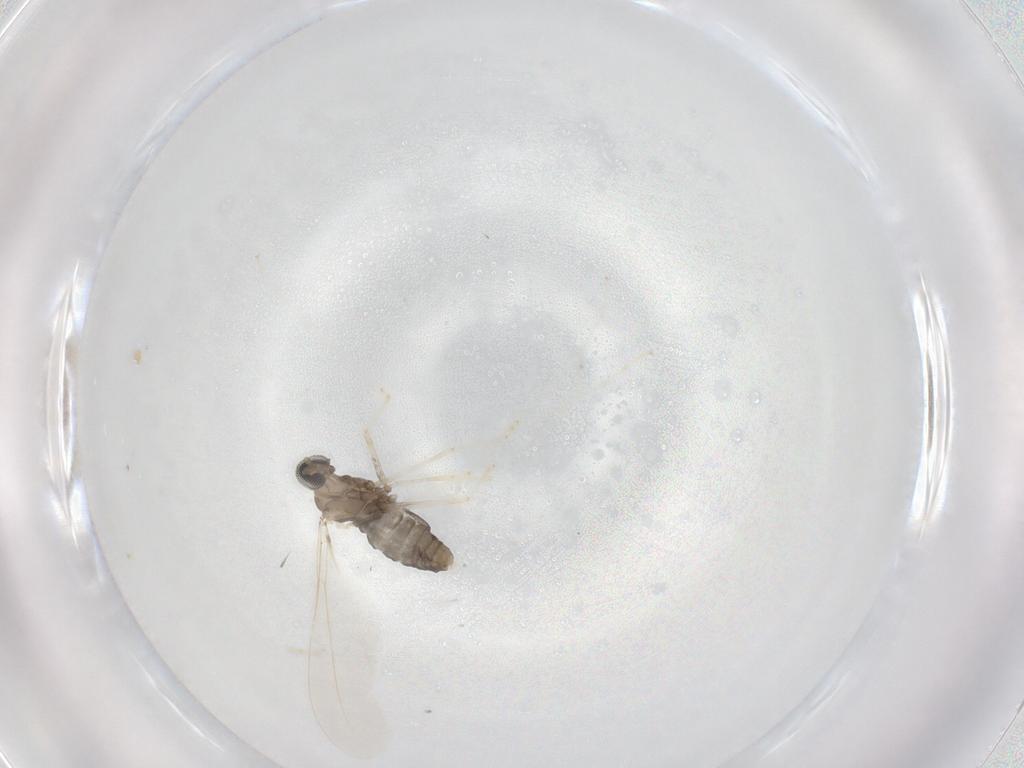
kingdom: Animalia
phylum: Arthropoda
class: Insecta
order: Diptera
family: Cecidomyiidae
